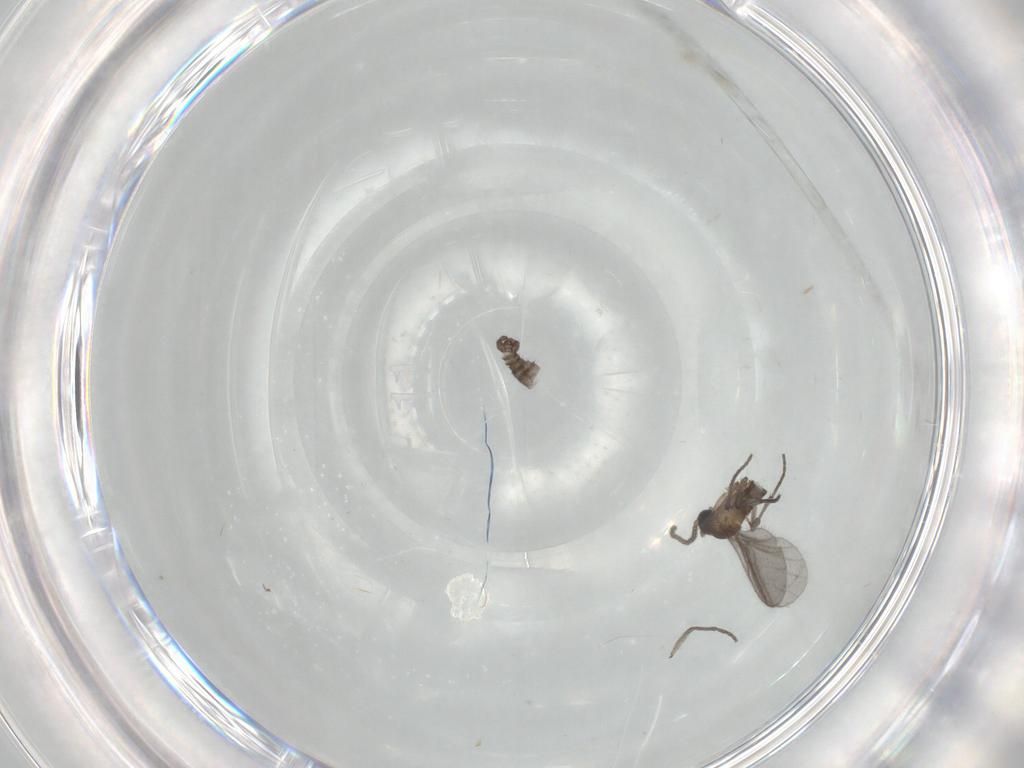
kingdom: Animalia
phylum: Arthropoda
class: Insecta
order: Diptera
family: Sciaridae
